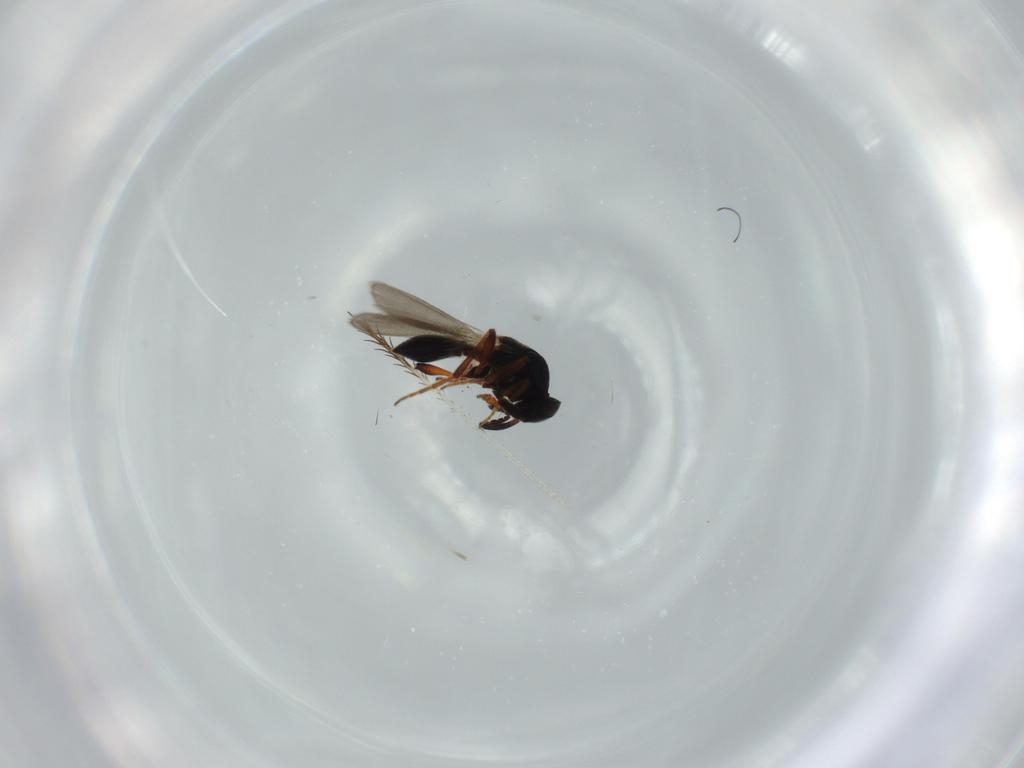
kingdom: Animalia
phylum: Arthropoda
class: Insecta
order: Hymenoptera
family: Platygastridae
